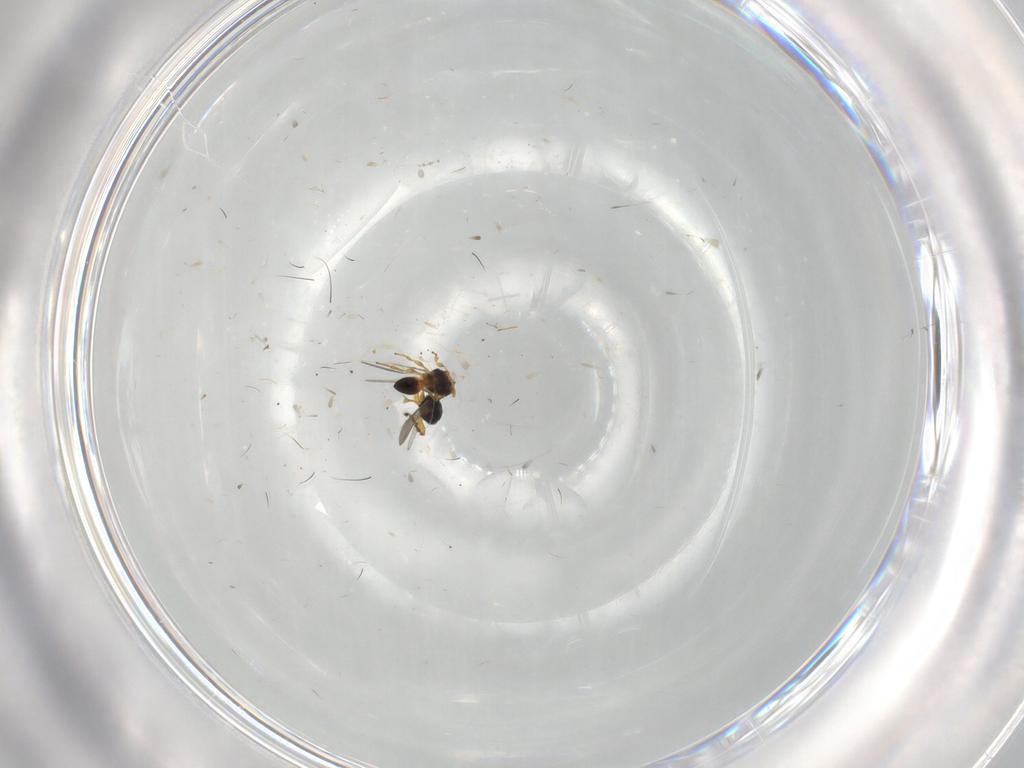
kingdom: Animalia
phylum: Arthropoda
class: Insecta
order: Hymenoptera
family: Platygastridae
